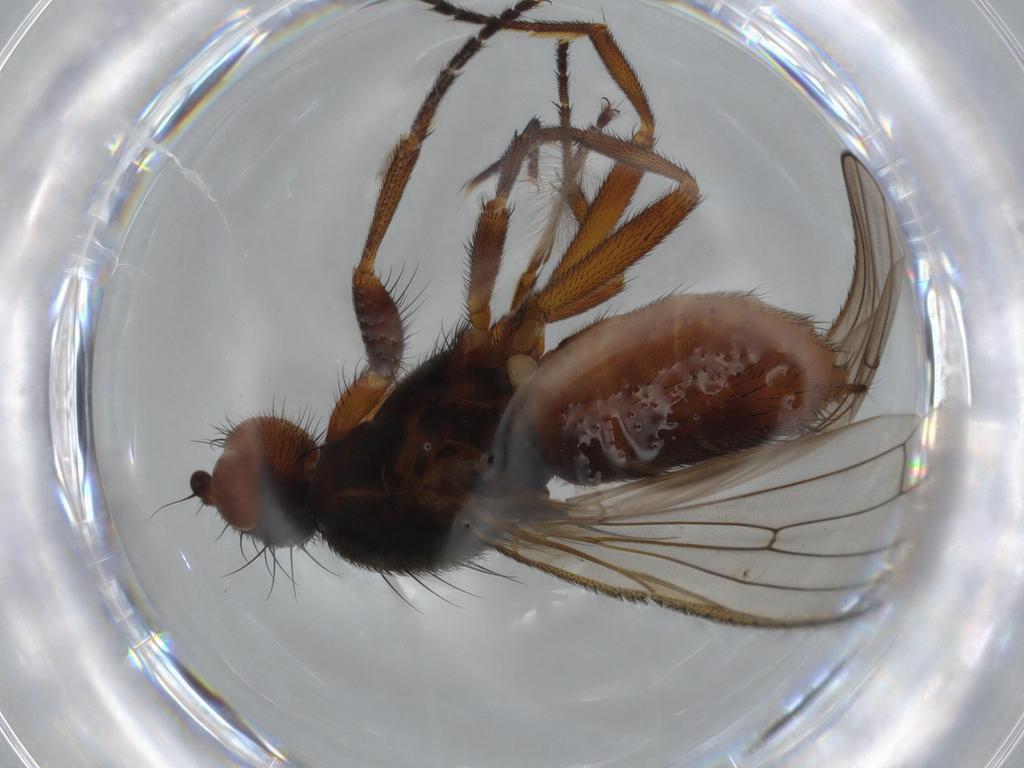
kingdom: Animalia
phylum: Arthropoda
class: Insecta
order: Diptera
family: Heleomyzidae
